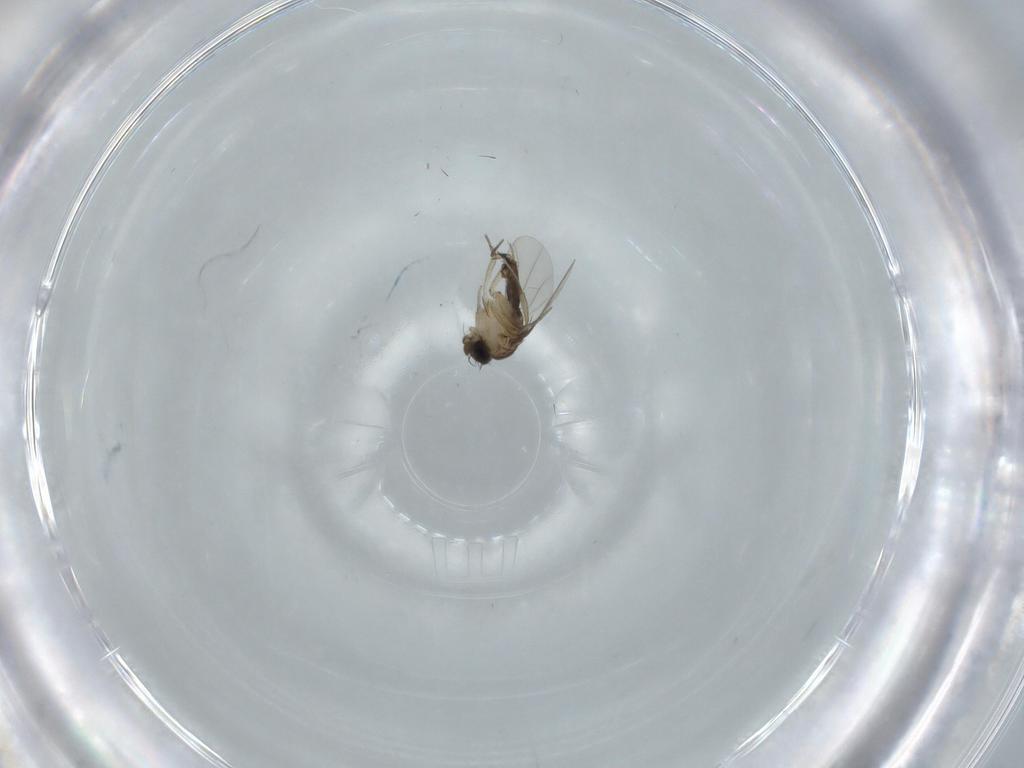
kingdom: Animalia
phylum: Arthropoda
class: Insecta
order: Diptera
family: Phoridae
